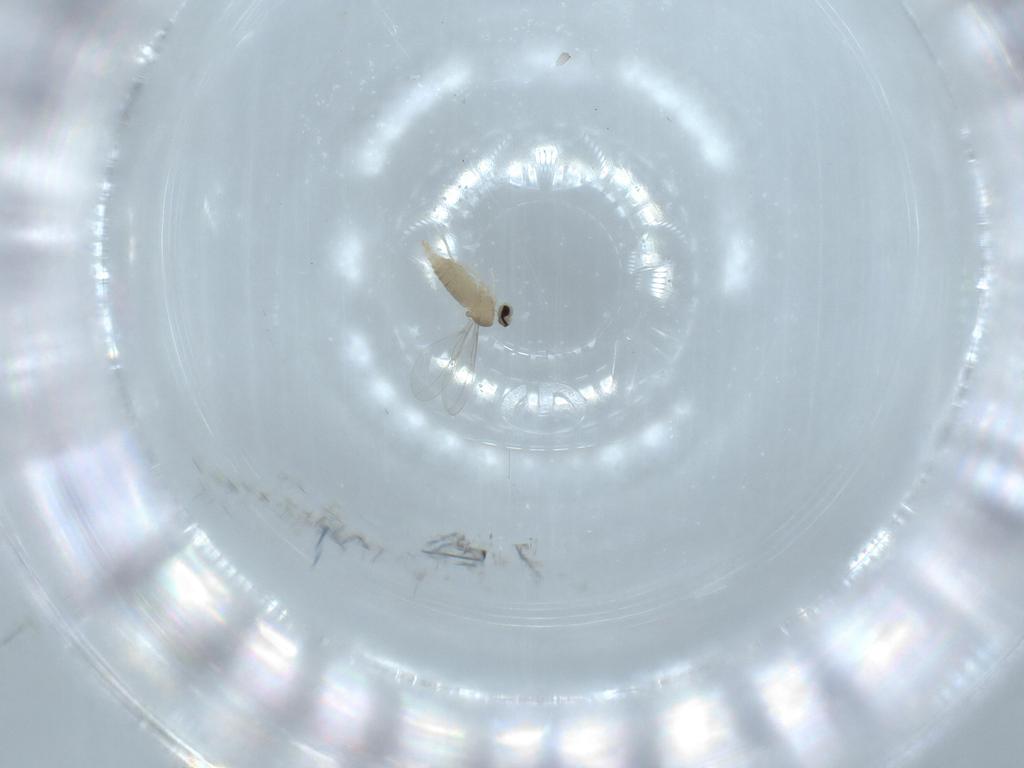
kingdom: Animalia
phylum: Arthropoda
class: Insecta
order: Diptera
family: Cecidomyiidae
